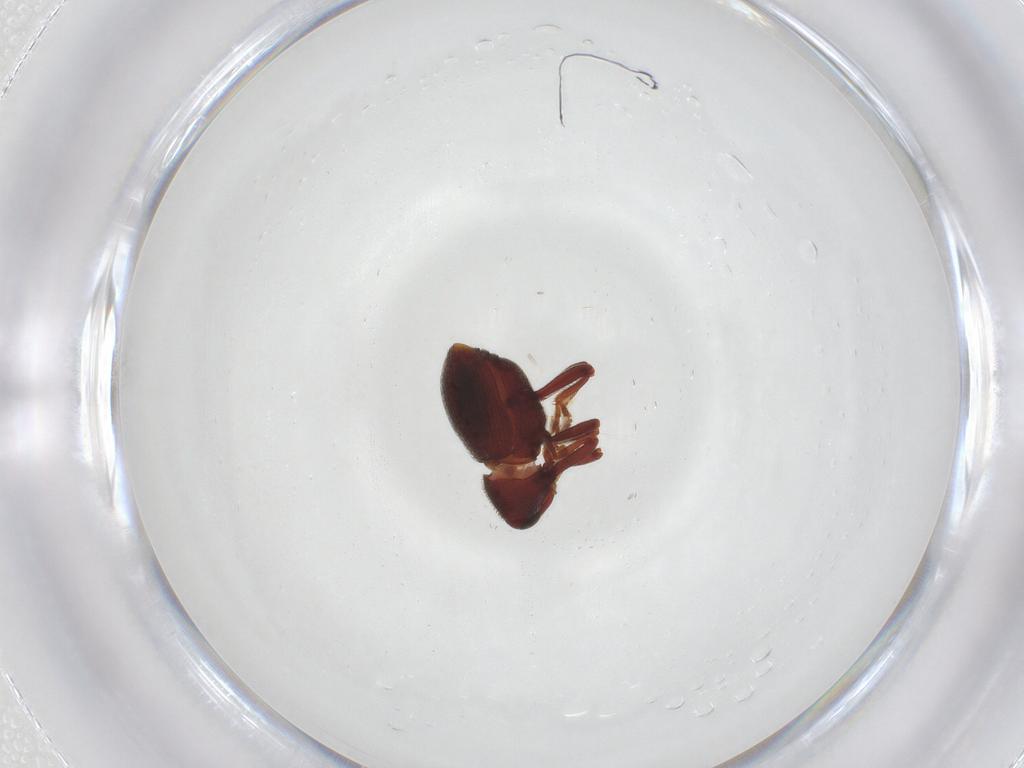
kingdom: Animalia
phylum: Arthropoda
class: Insecta
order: Coleoptera
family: Curculionidae
